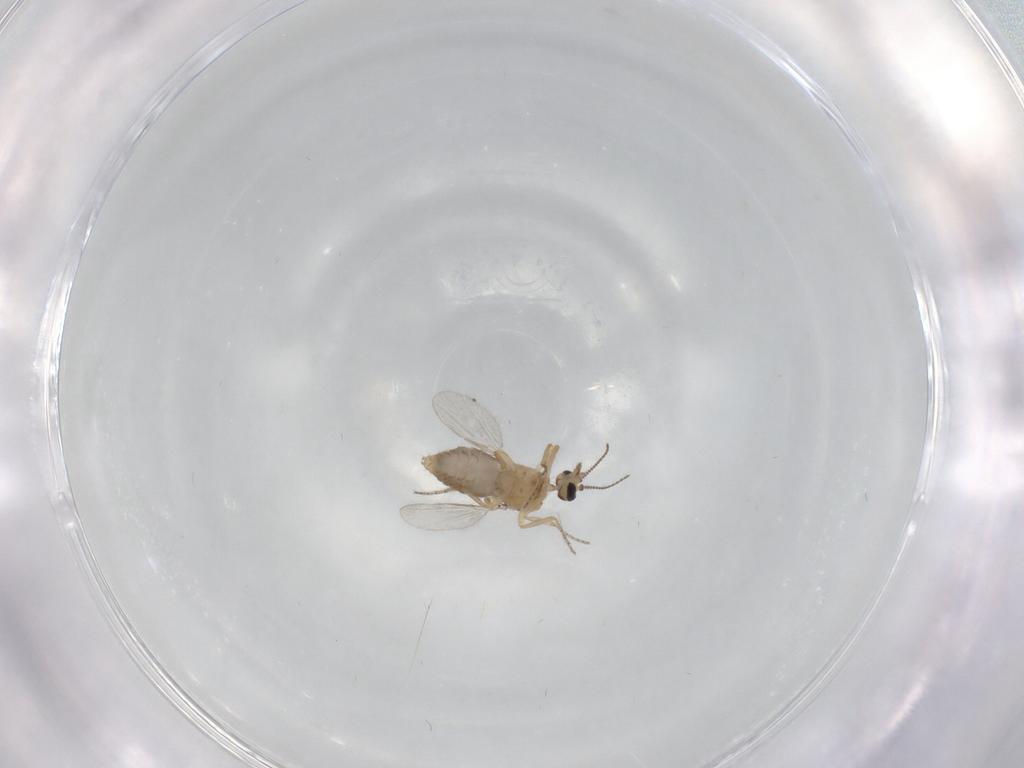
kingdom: Animalia
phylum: Arthropoda
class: Insecta
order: Diptera
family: Ceratopogonidae
